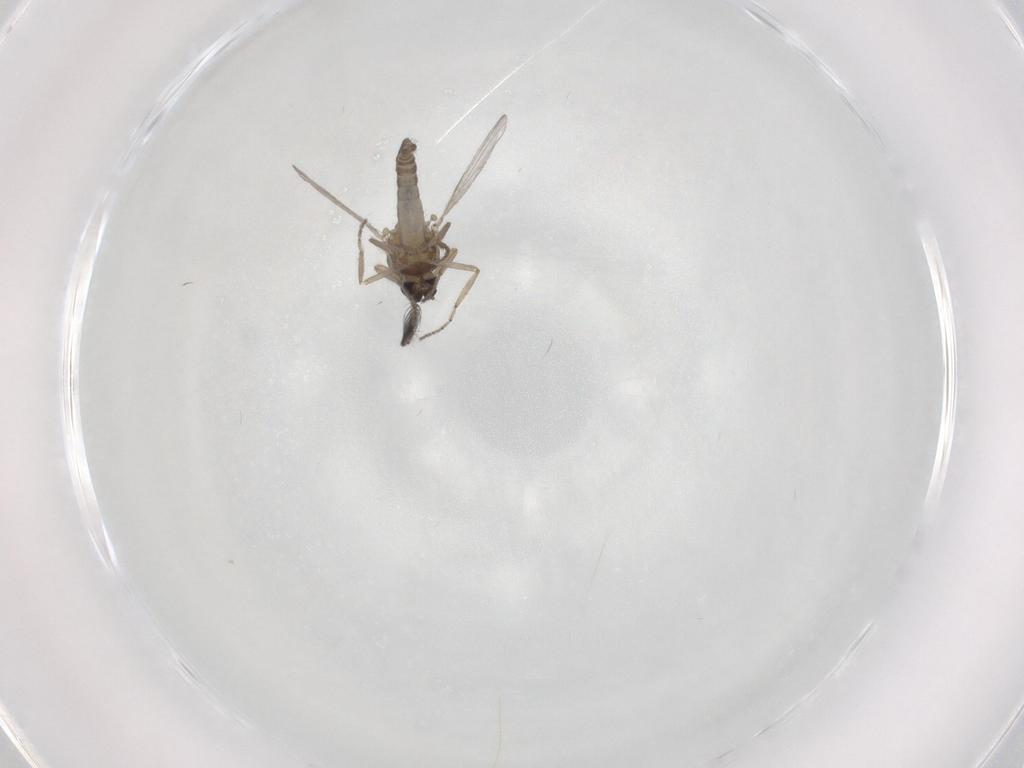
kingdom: Animalia
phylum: Arthropoda
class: Insecta
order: Diptera
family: Ceratopogonidae
